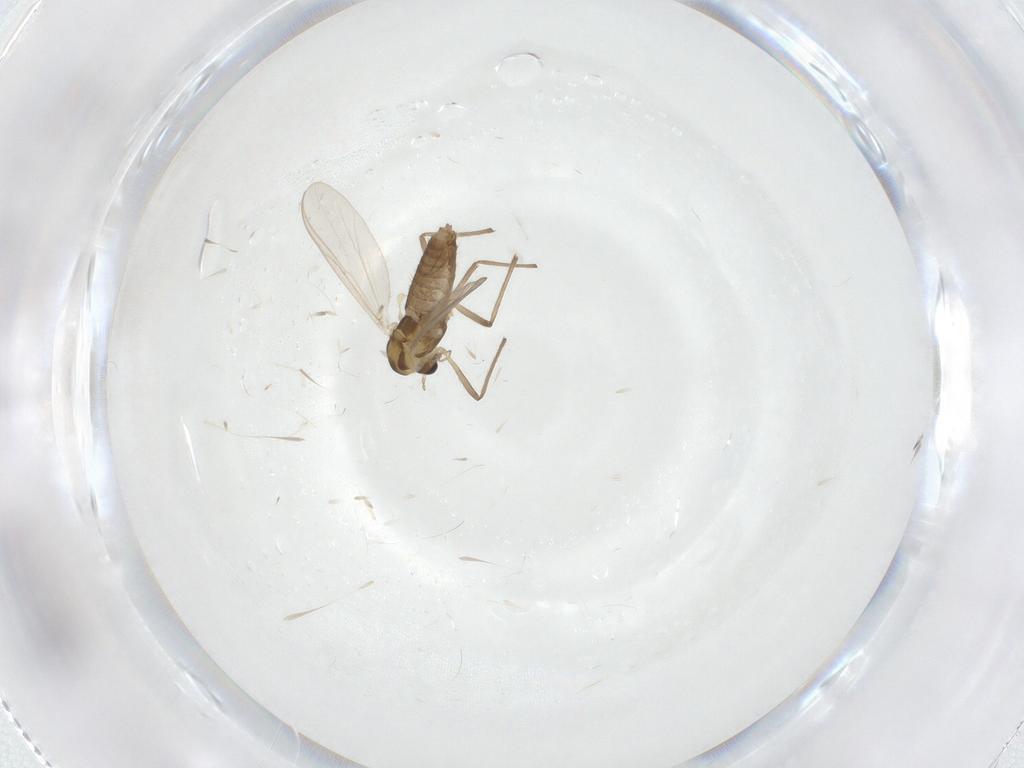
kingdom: Animalia
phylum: Arthropoda
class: Insecta
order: Diptera
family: Chironomidae
